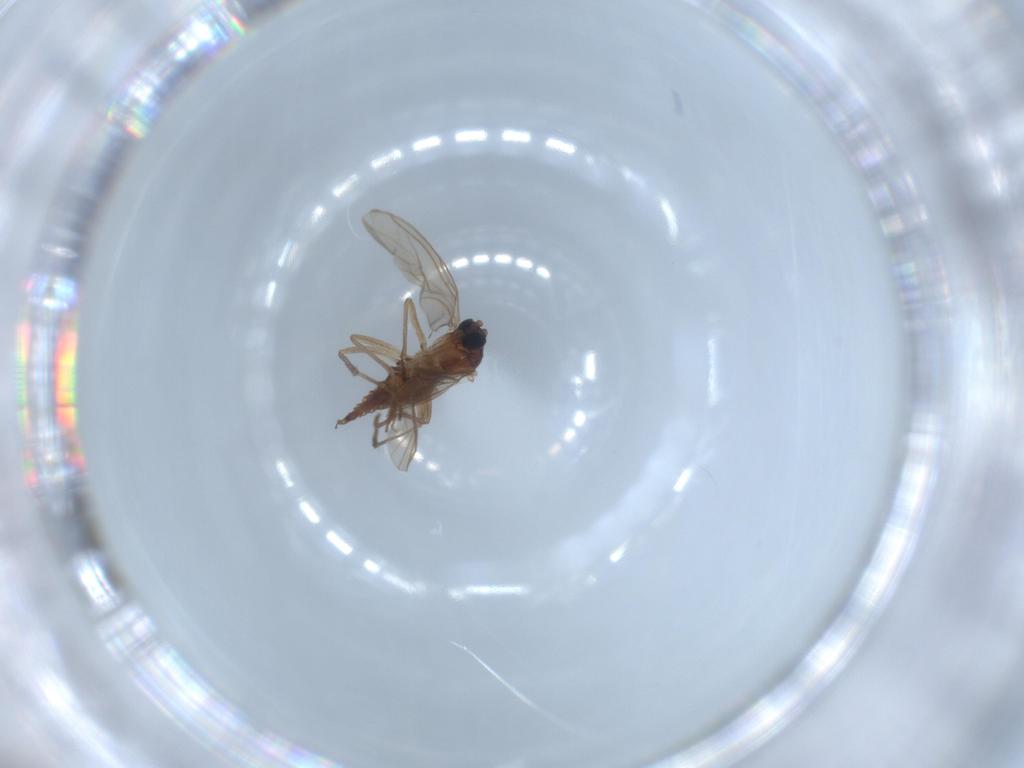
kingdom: Animalia
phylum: Arthropoda
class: Insecta
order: Diptera
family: Sciaridae
